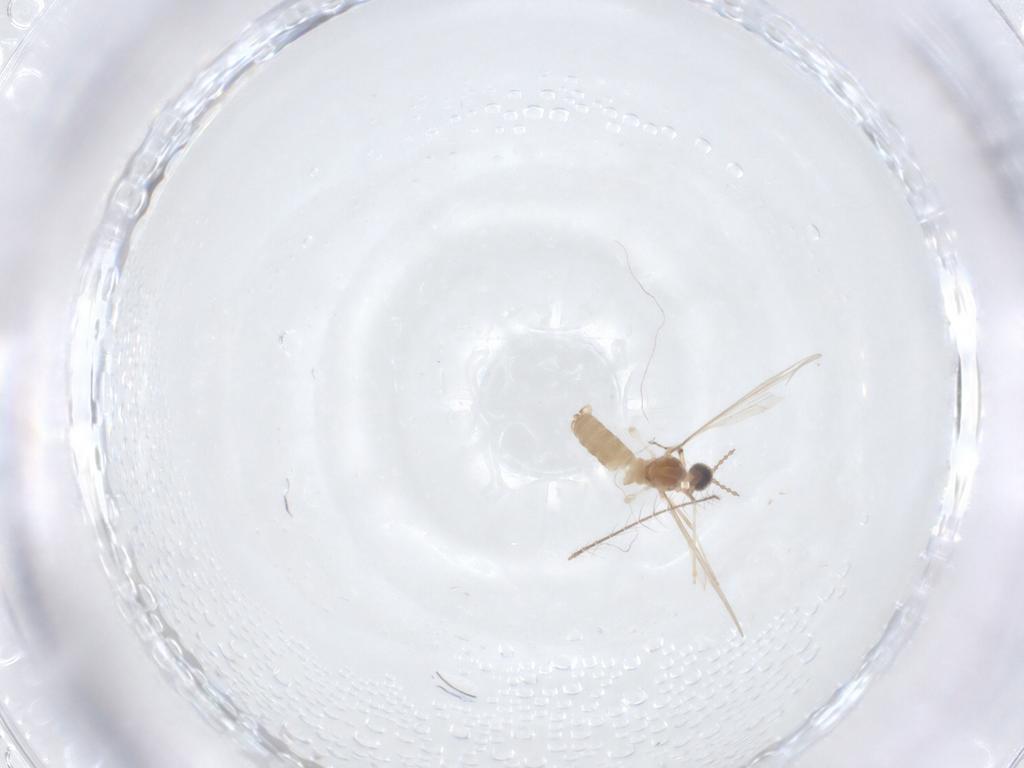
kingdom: Animalia
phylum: Arthropoda
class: Insecta
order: Diptera
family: Cecidomyiidae
